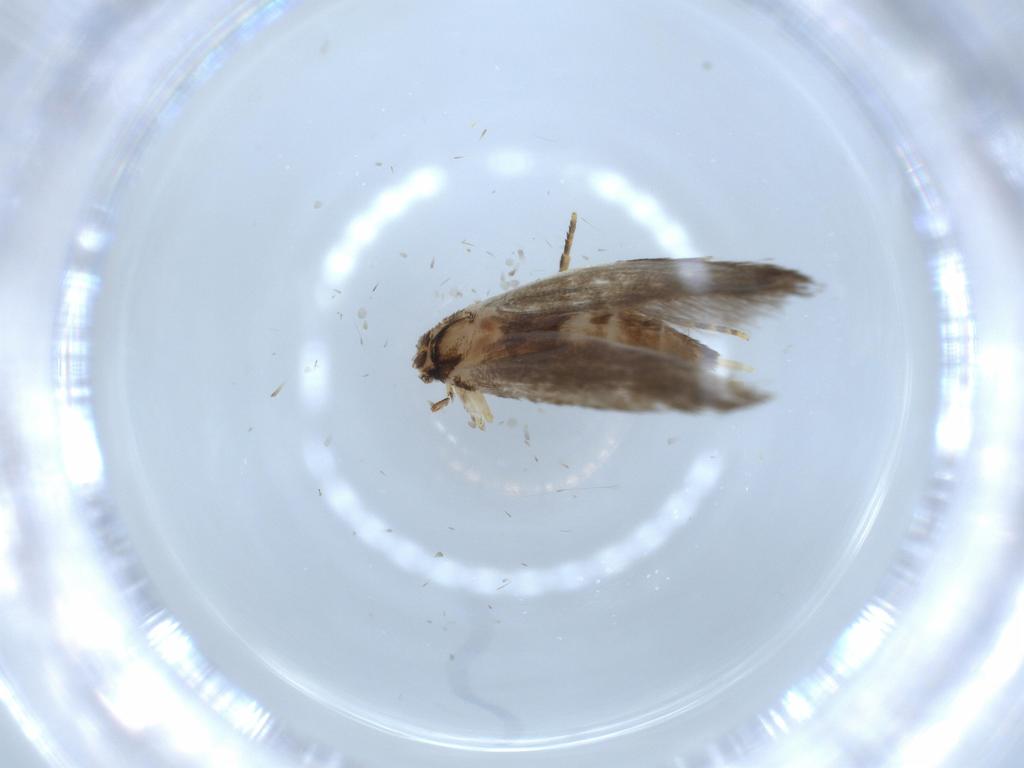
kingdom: Animalia
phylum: Arthropoda
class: Insecta
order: Lepidoptera
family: Tineidae
